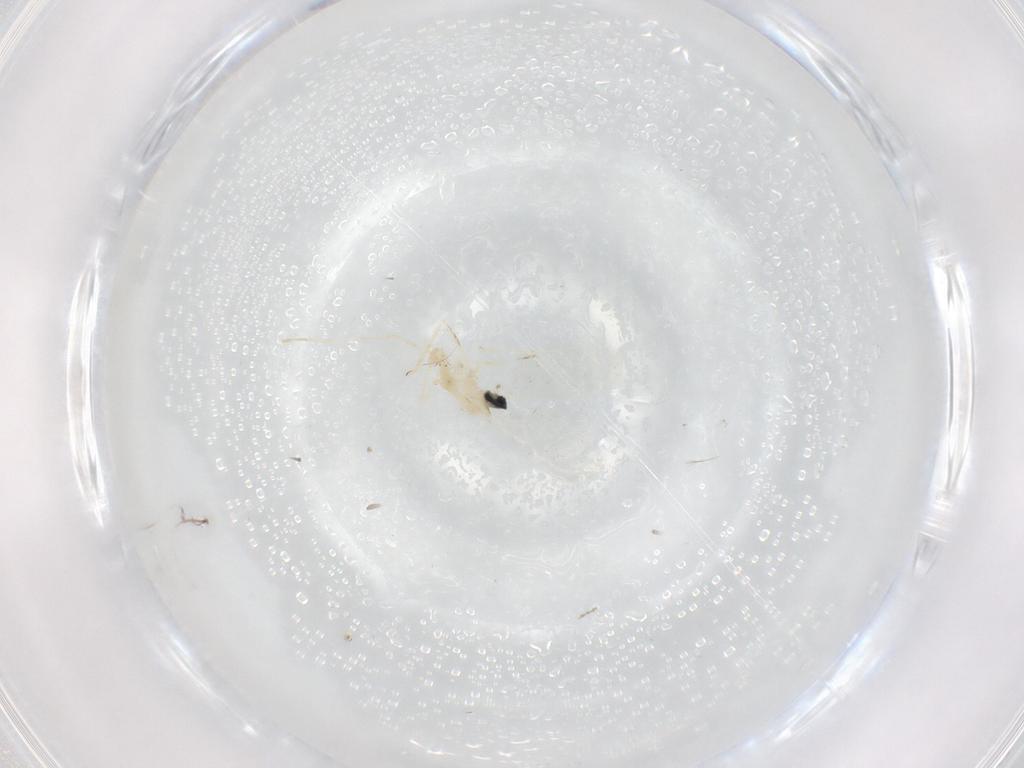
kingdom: Animalia
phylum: Arthropoda
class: Insecta
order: Diptera
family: Cecidomyiidae
